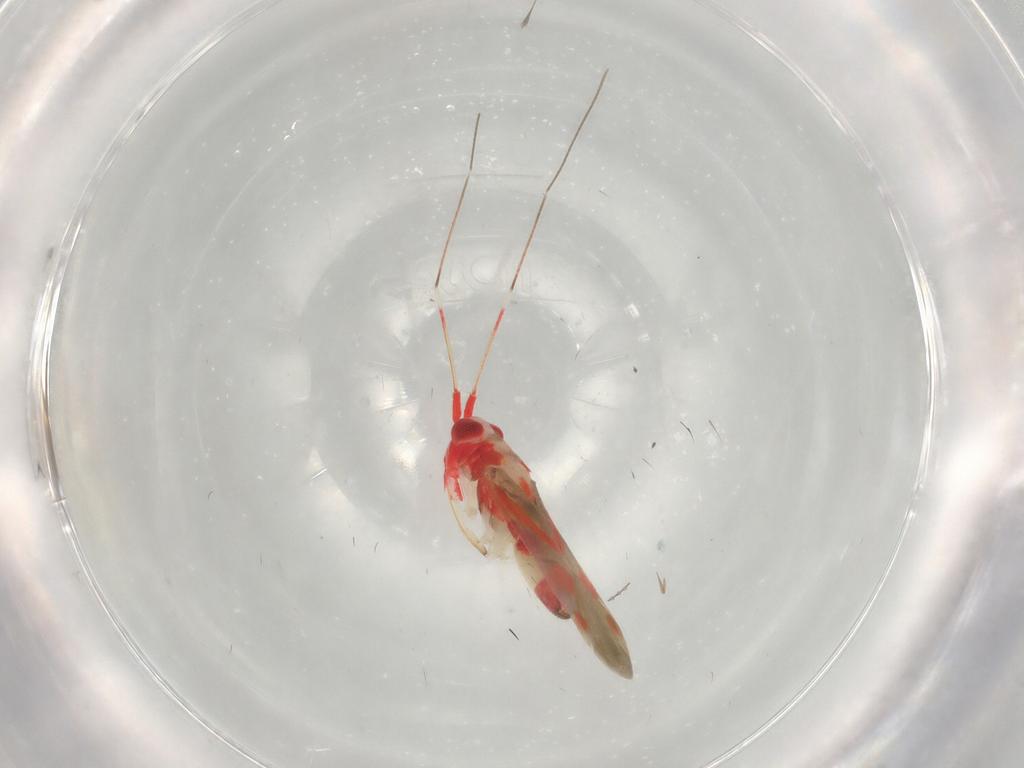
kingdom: Animalia
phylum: Arthropoda
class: Insecta
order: Hemiptera
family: Miridae
